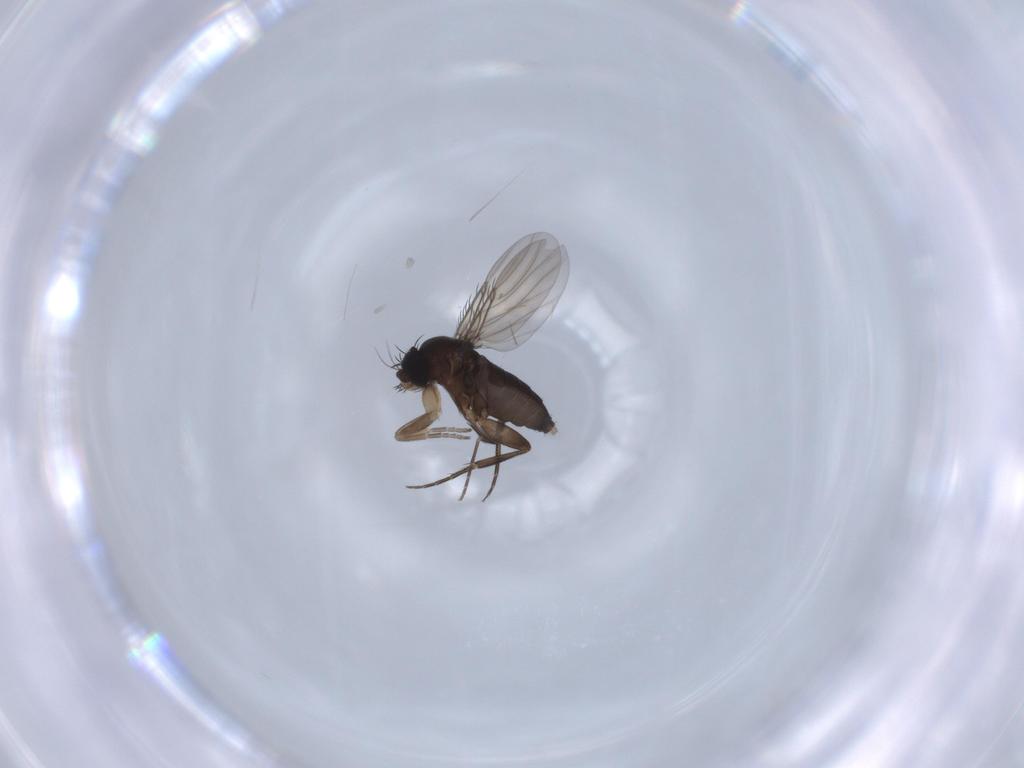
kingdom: Animalia
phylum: Arthropoda
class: Insecta
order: Diptera
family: Phoridae
